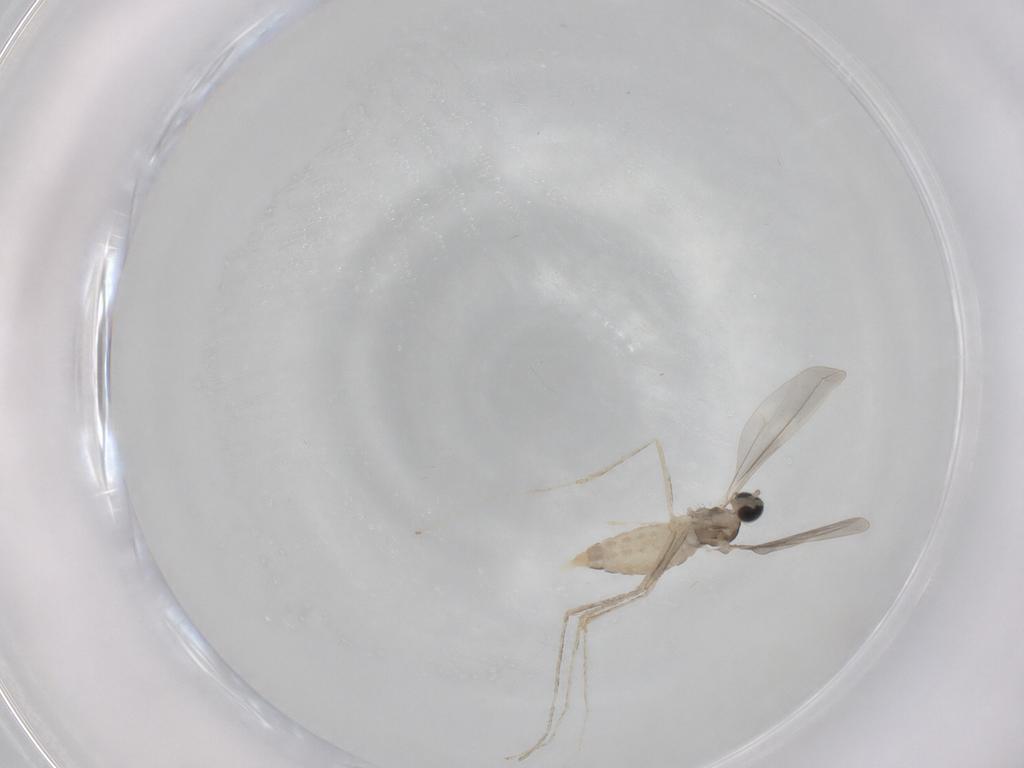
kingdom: Animalia
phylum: Arthropoda
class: Insecta
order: Diptera
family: Cecidomyiidae
